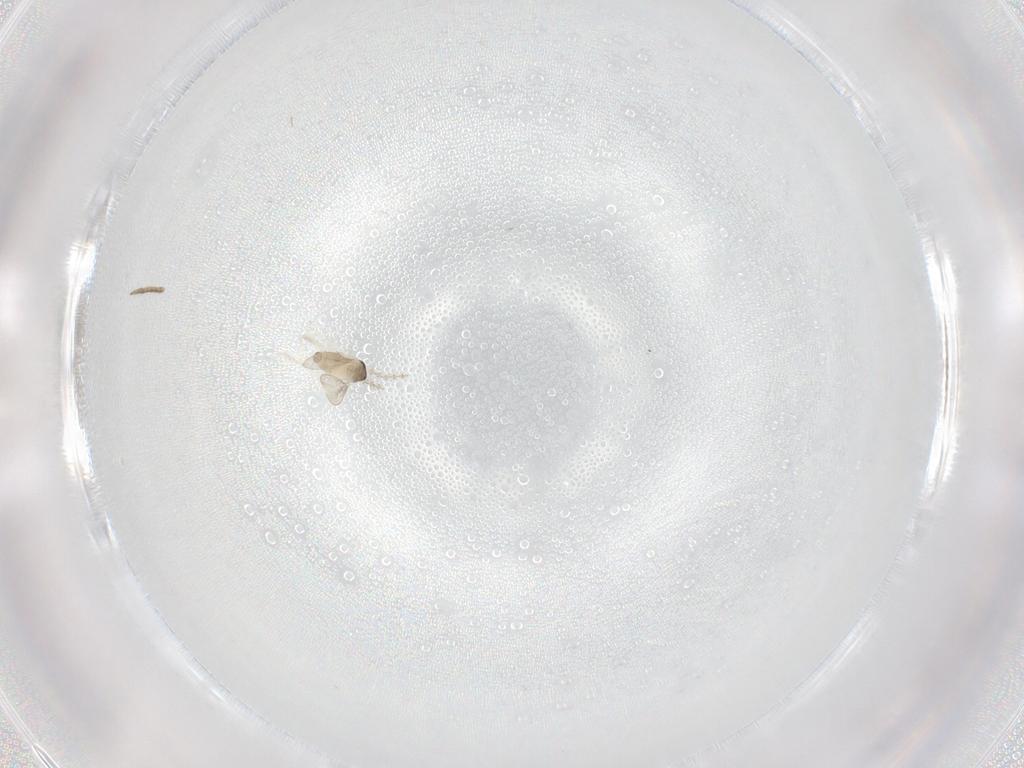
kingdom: Animalia
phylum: Arthropoda
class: Insecta
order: Diptera
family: Cecidomyiidae
